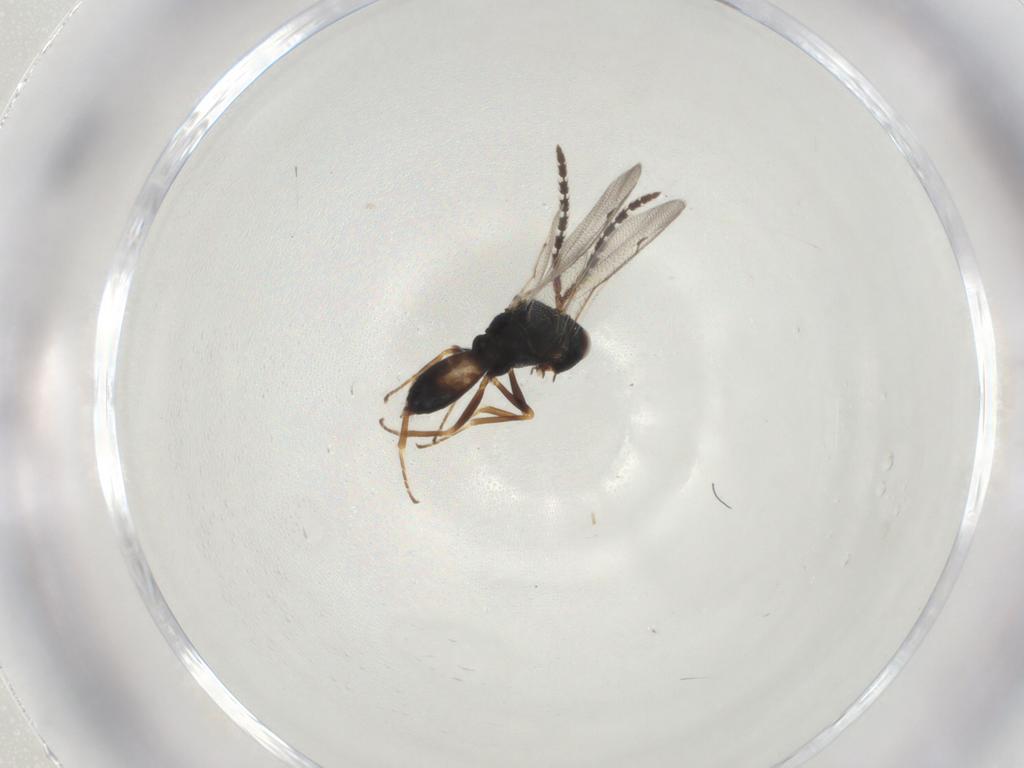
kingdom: Animalia
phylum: Arthropoda
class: Insecta
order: Hymenoptera
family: Pteromalidae
